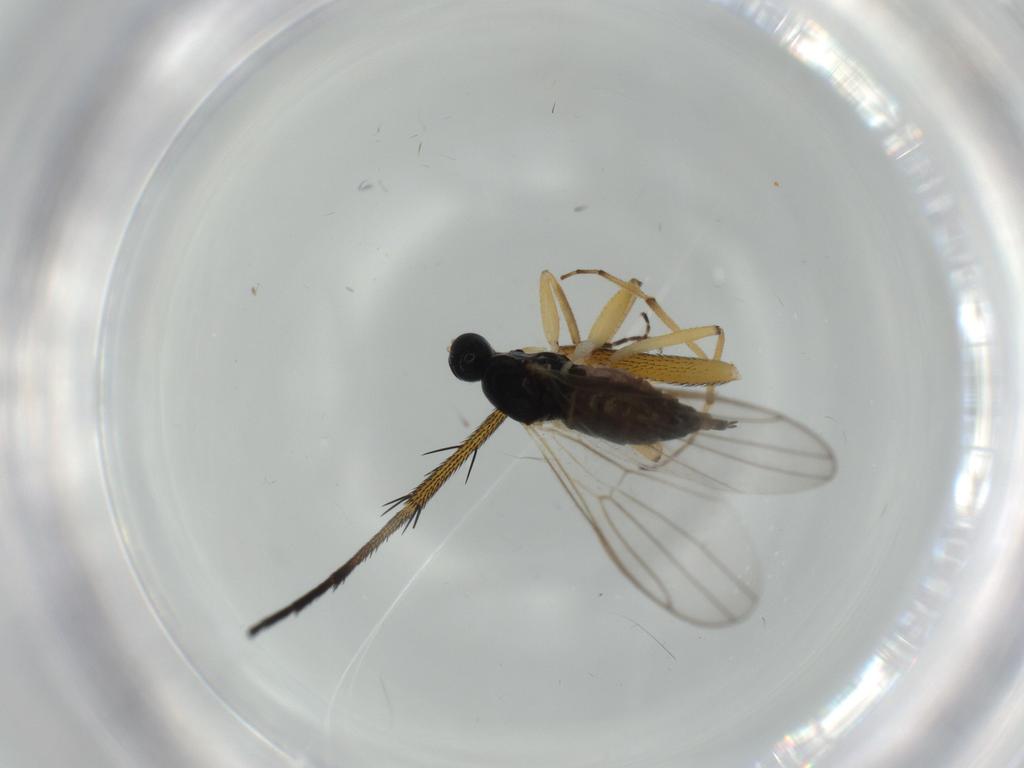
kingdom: Animalia
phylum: Arthropoda
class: Insecta
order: Diptera
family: Dolichopodidae
